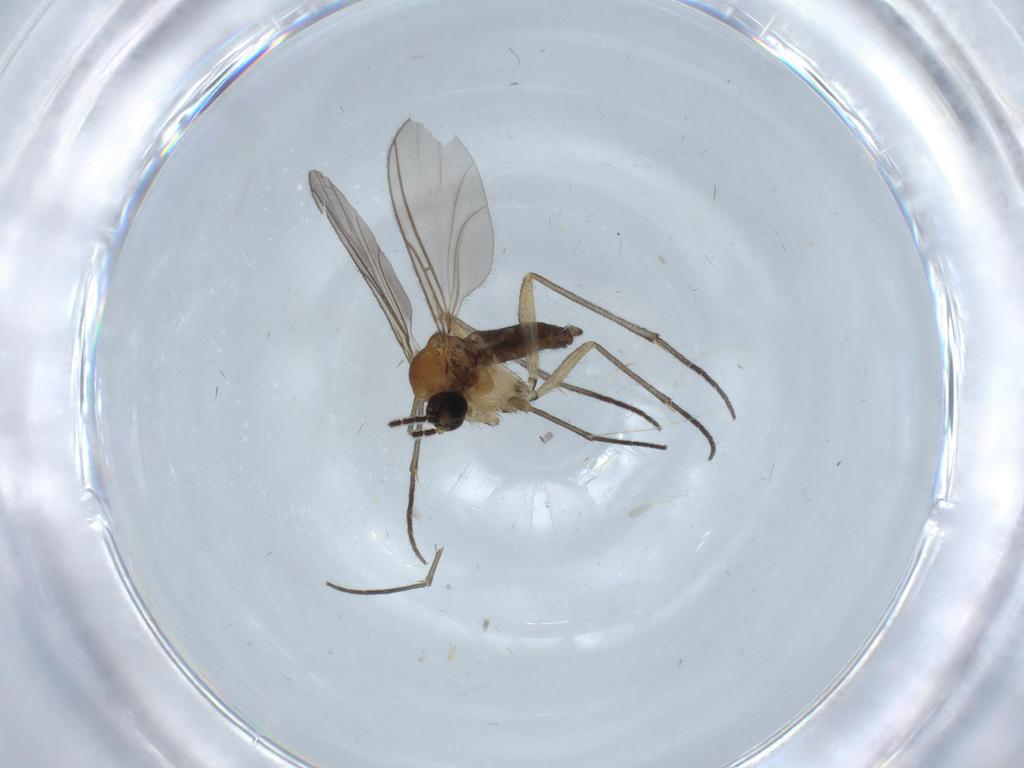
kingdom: Animalia
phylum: Arthropoda
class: Insecta
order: Diptera
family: Sciaridae
